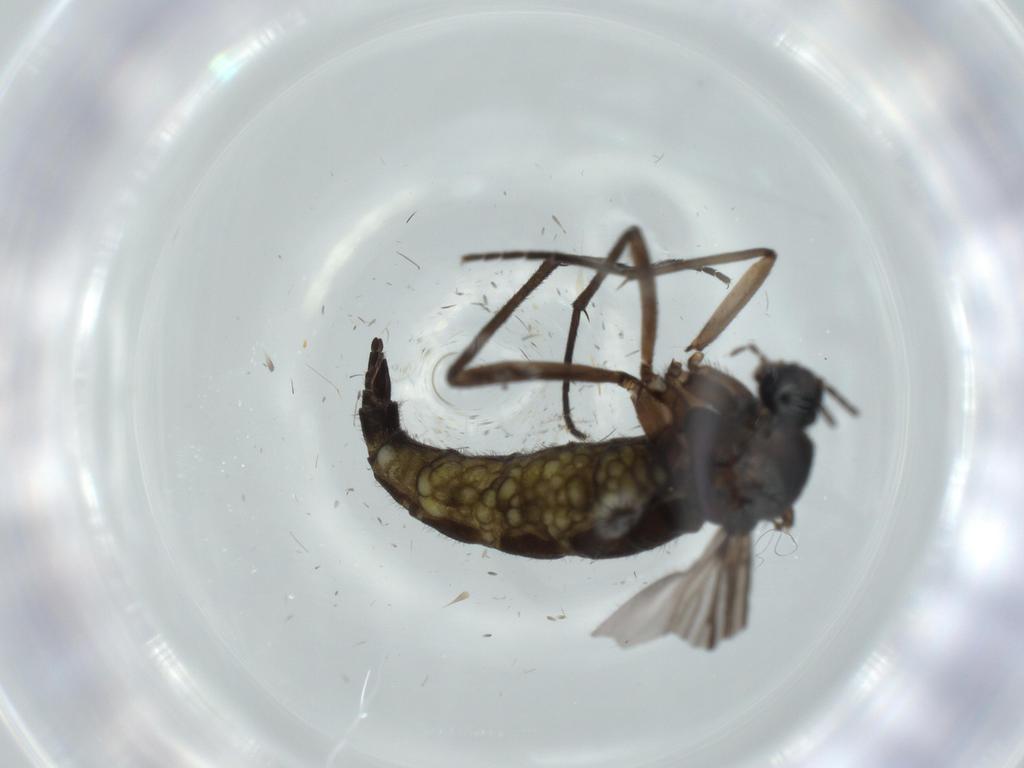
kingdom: Animalia
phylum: Arthropoda
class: Insecta
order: Diptera
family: Sciaridae
